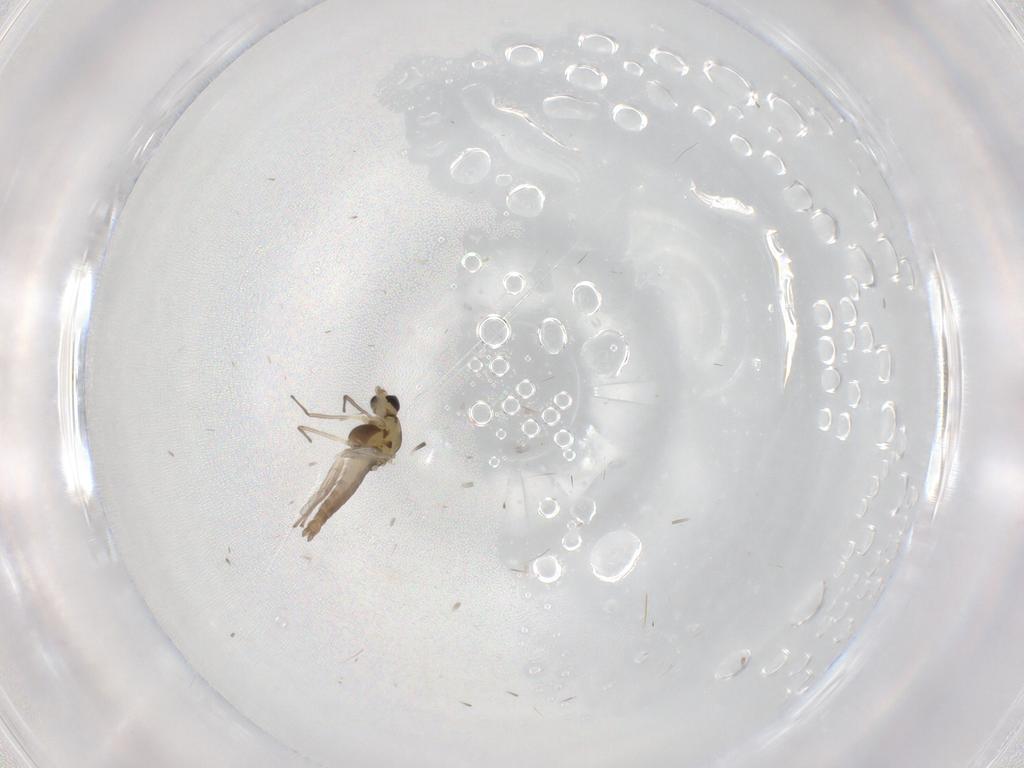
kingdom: Animalia
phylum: Arthropoda
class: Insecta
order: Diptera
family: Chironomidae
